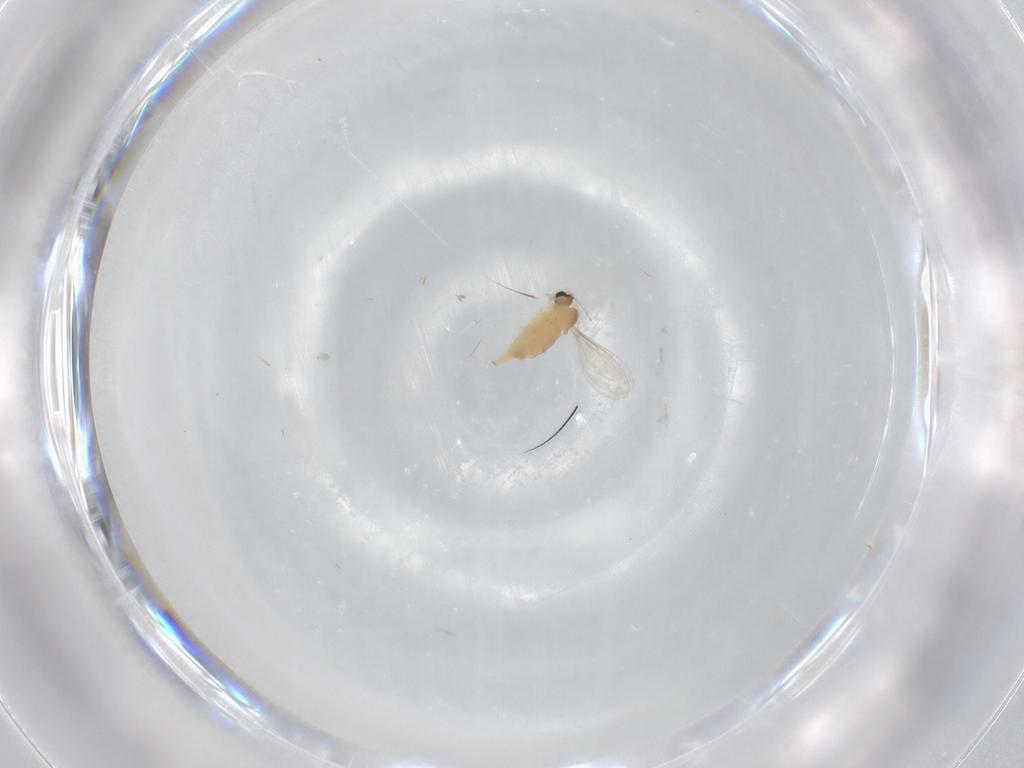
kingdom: Animalia
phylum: Arthropoda
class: Insecta
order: Diptera
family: Cecidomyiidae
